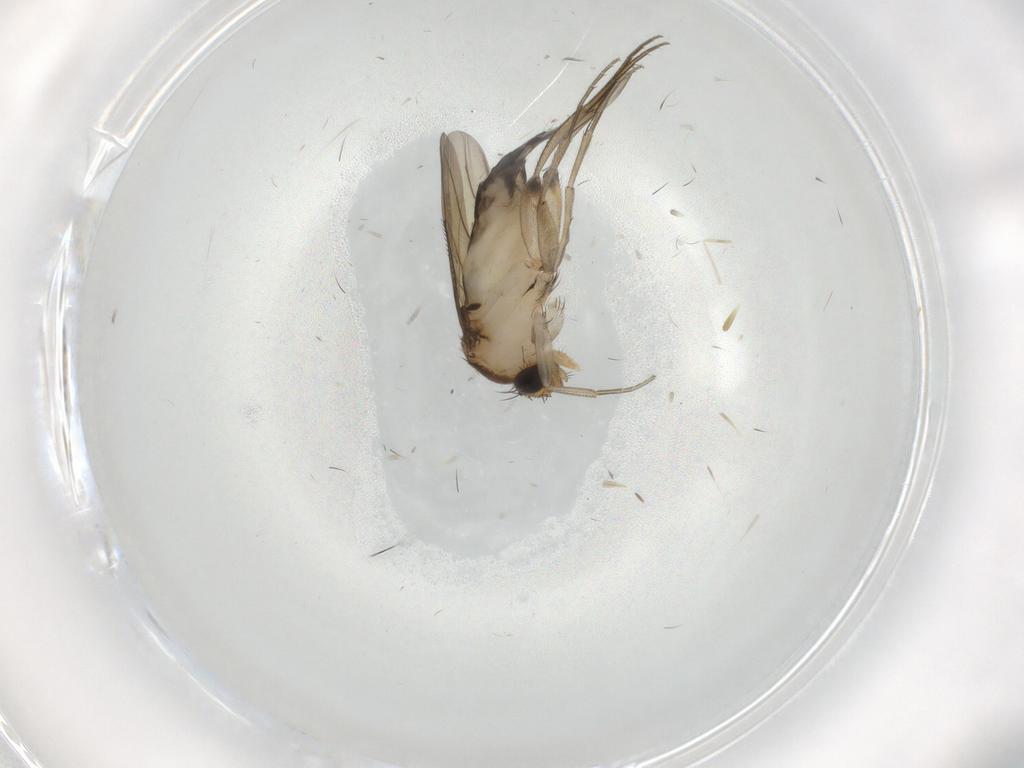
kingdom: Animalia
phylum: Arthropoda
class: Insecta
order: Diptera
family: Phoridae
